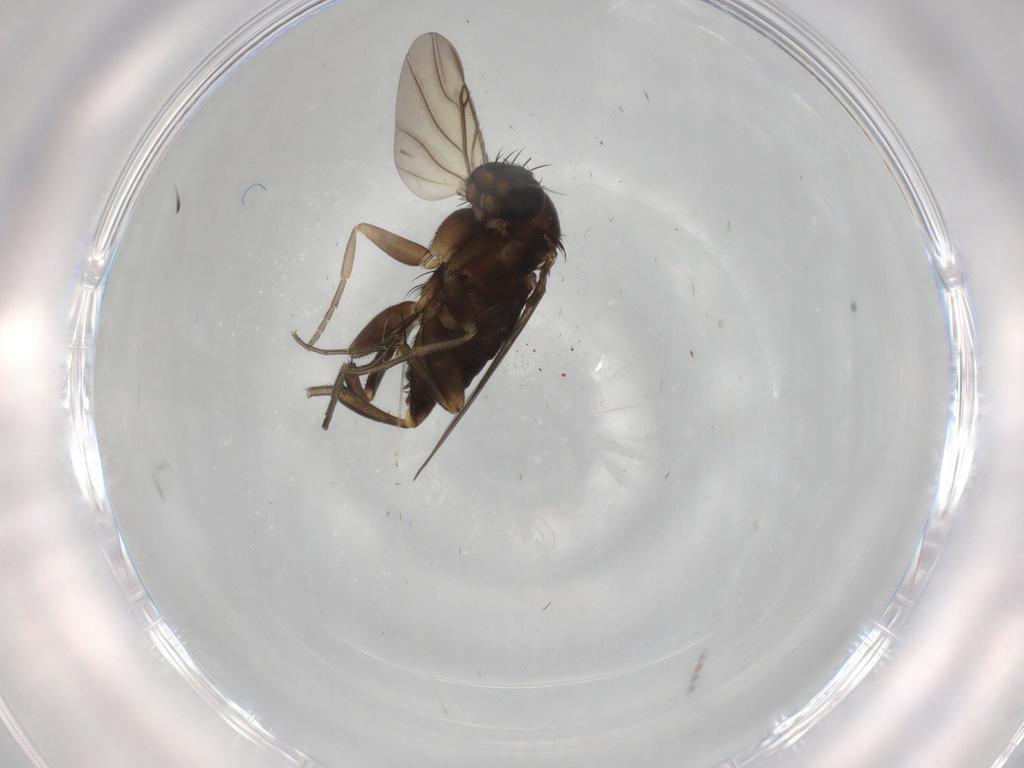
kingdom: Animalia
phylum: Arthropoda
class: Insecta
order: Diptera
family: Phoridae
